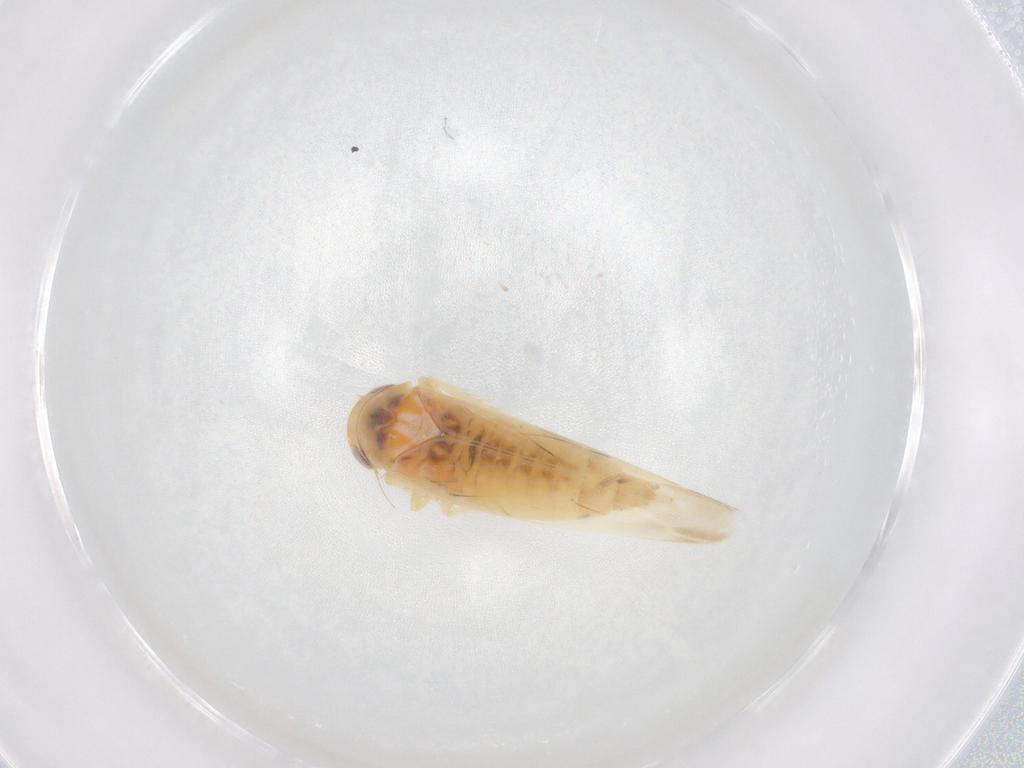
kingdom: Animalia
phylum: Arthropoda
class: Insecta
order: Hemiptera
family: Cicadellidae
